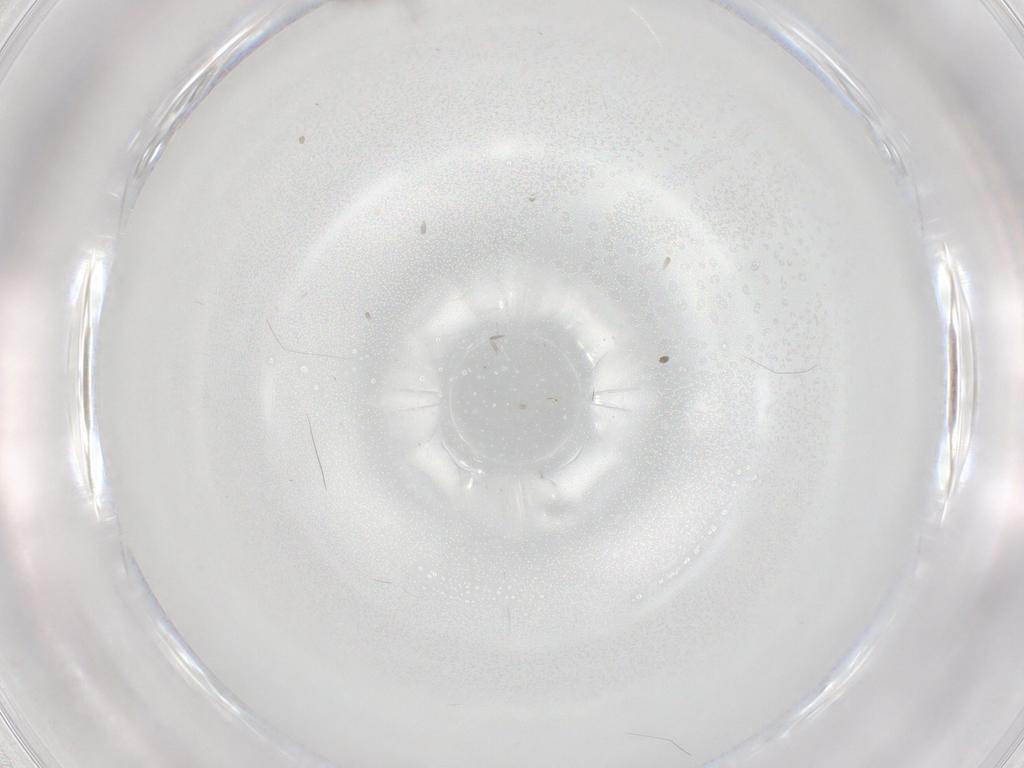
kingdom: Animalia
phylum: Arthropoda
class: Insecta
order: Diptera
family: Psychodidae
